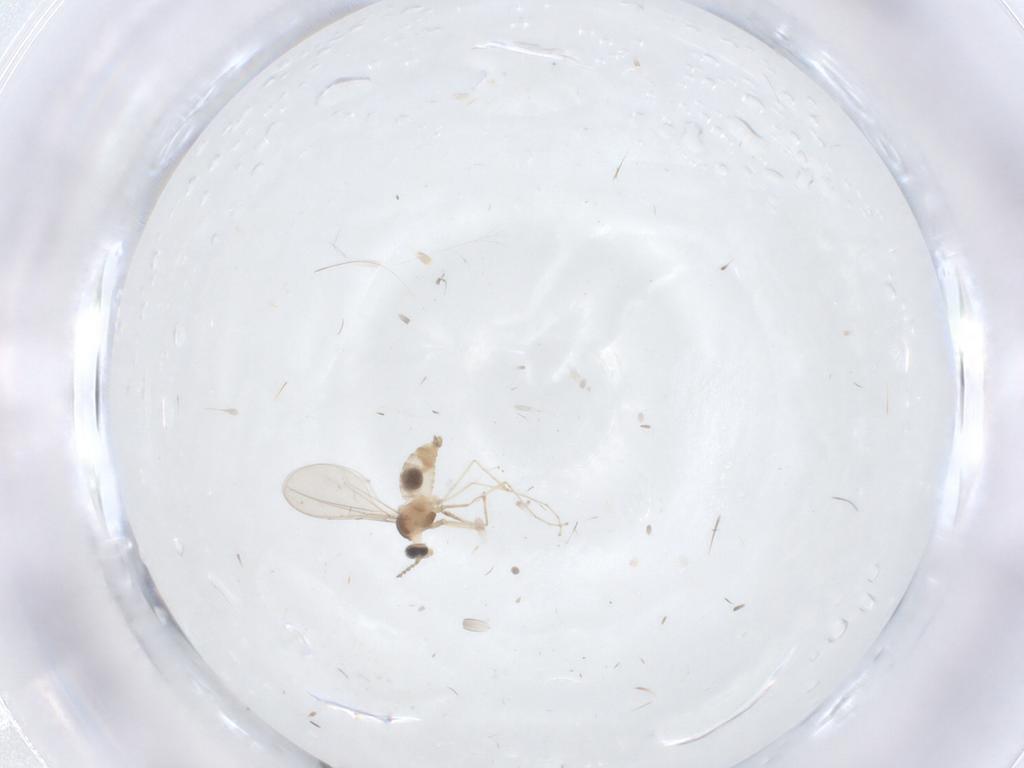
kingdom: Animalia
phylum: Arthropoda
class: Insecta
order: Diptera
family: Cecidomyiidae
